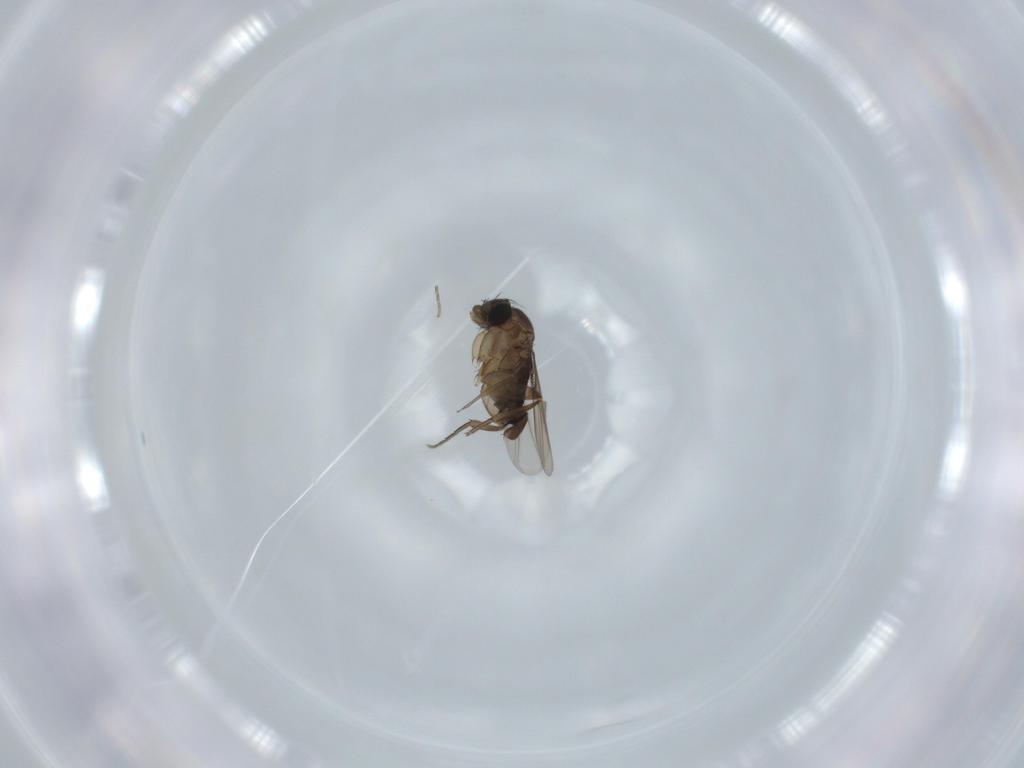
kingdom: Animalia
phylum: Arthropoda
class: Insecta
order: Diptera
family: Phoridae
